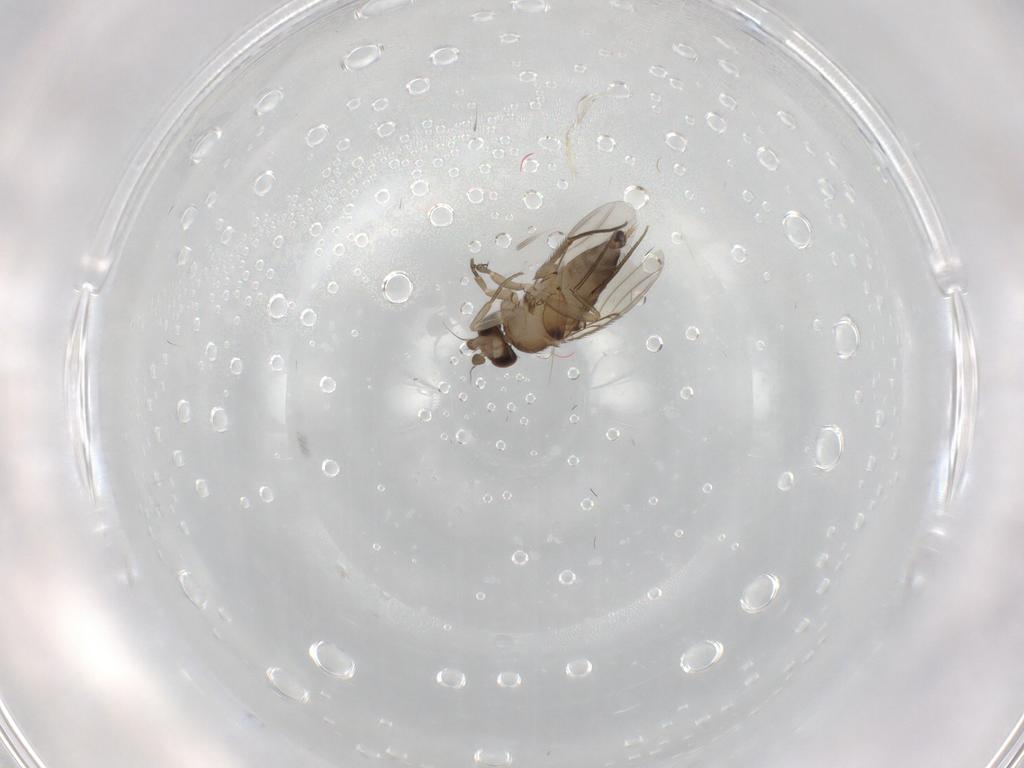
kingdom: Animalia
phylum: Arthropoda
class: Insecta
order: Diptera
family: Phoridae
